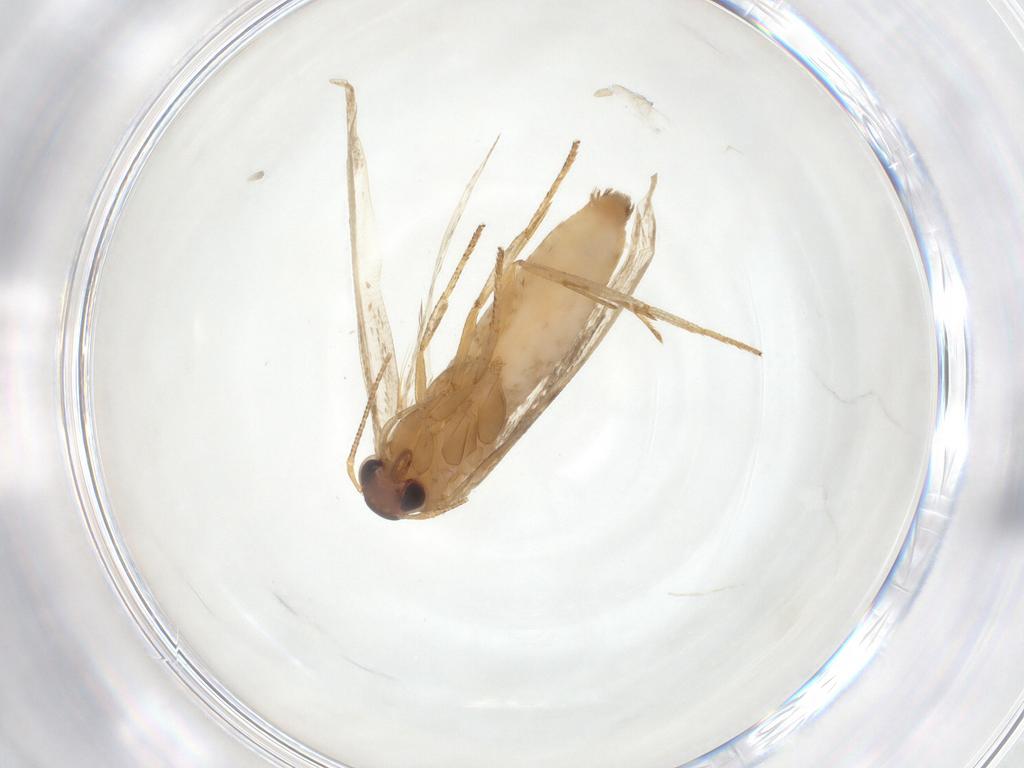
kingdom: Animalia
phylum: Arthropoda
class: Insecta
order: Lepidoptera
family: Blastobasidae
